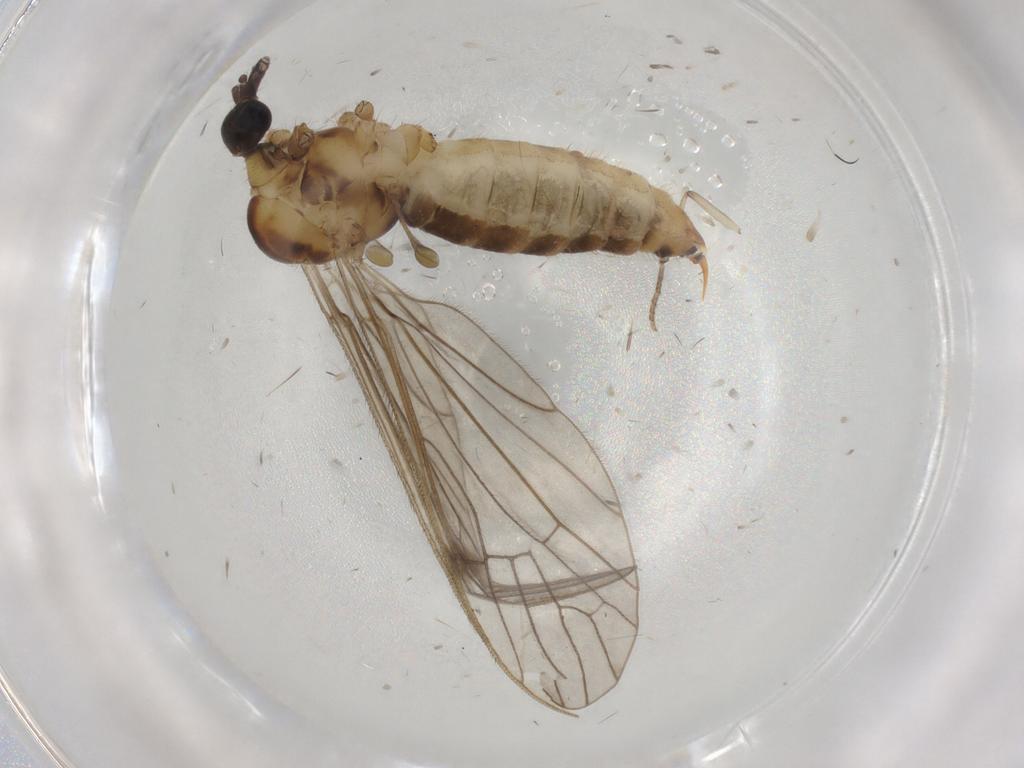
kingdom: Animalia
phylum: Arthropoda
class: Insecta
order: Diptera
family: Limoniidae
